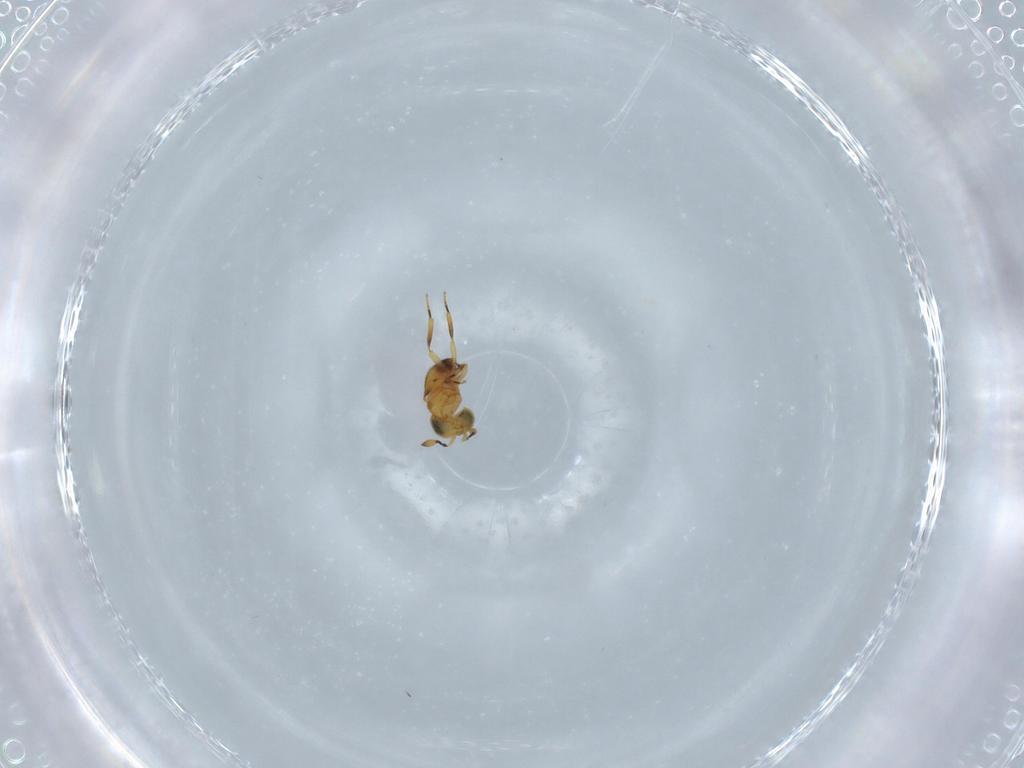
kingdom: Animalia
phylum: Arthropoda
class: Insecta
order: Hymenoptera
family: Scelionidae
